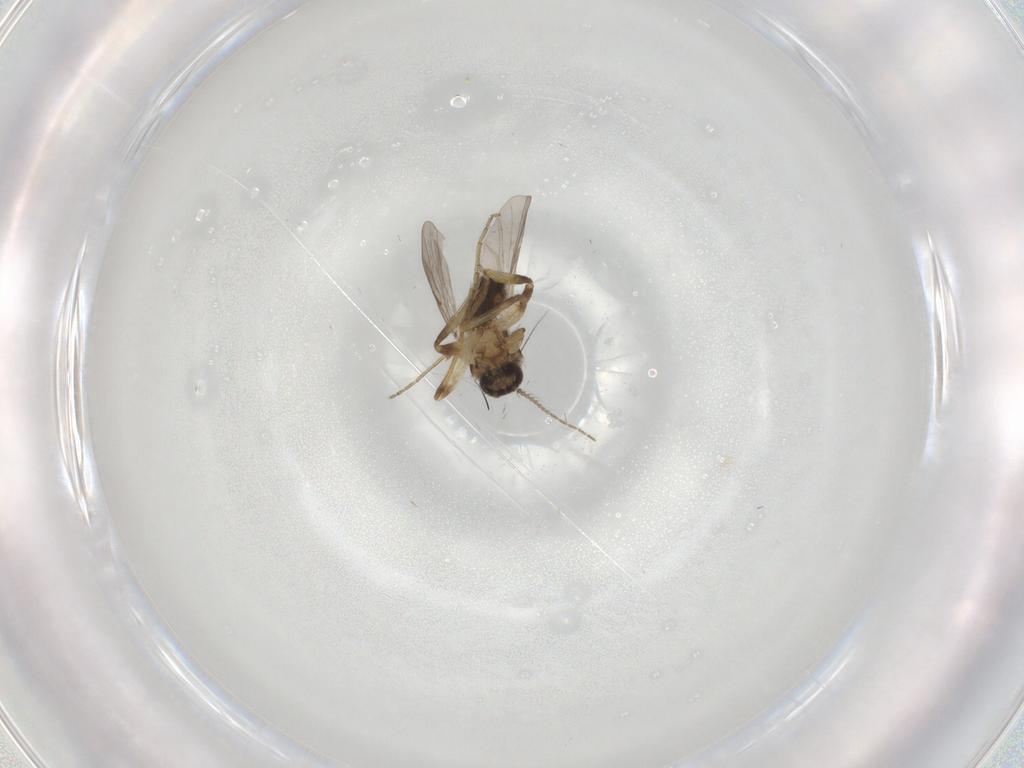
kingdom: Animalia
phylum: Arthropoda
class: Insecta
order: Diptera
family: Ceratopogonidae
